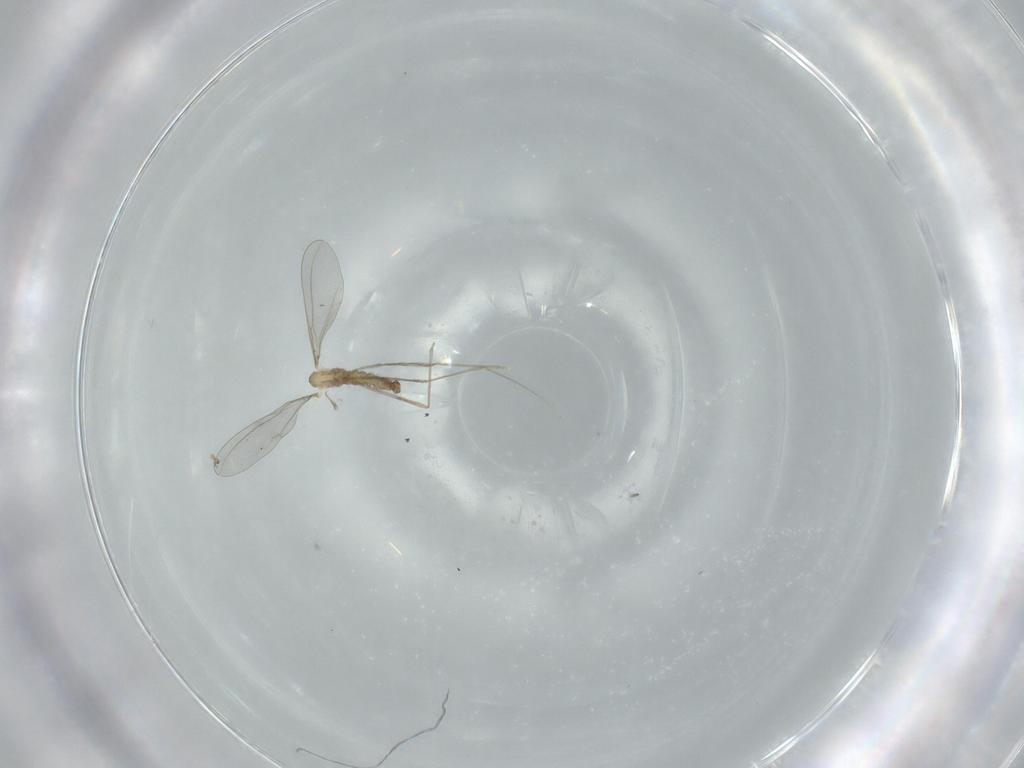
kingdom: Animalia
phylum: Arthropoda
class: Insecta
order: Diptera
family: Cecidomyiidae
